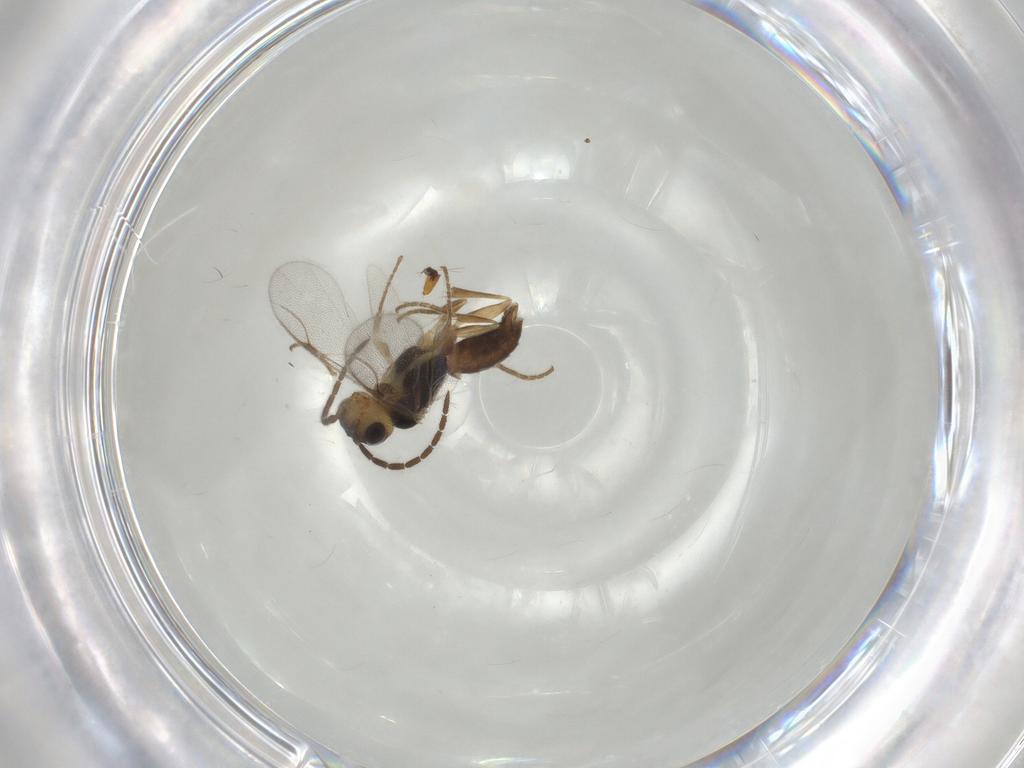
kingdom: Animalia
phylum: Arthropoda
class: Insecta
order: Hymenoptera
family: Dryinidae
